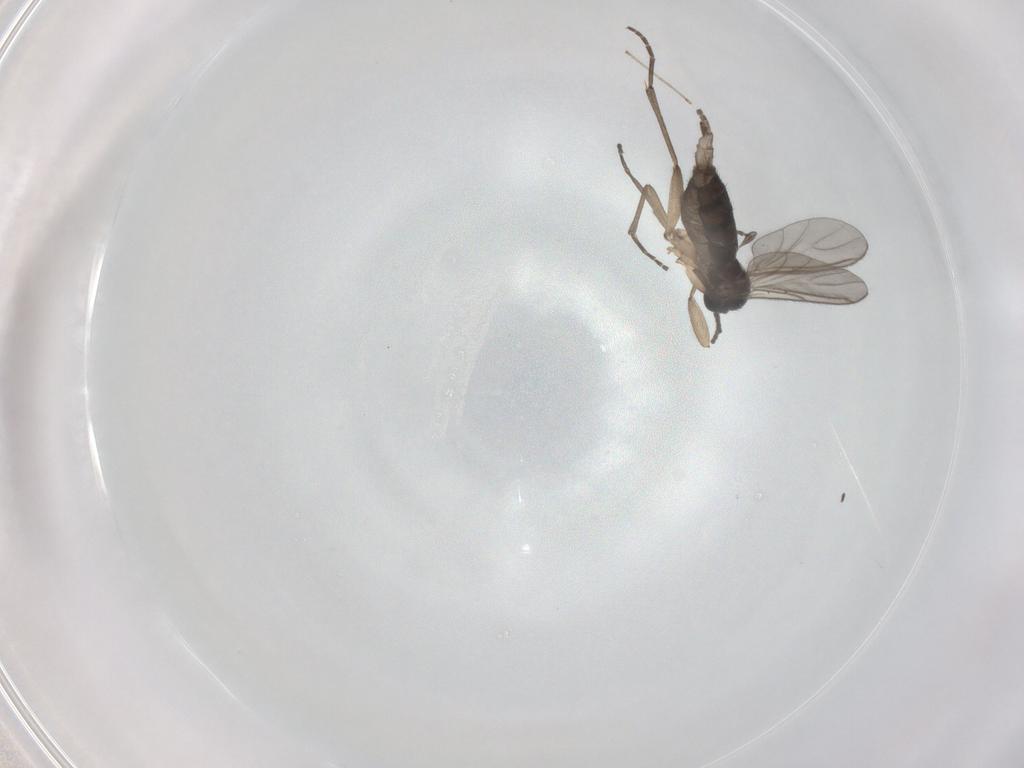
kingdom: Animalia
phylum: Arthropoda
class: Insecta
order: Diptera
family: Sciaridae
